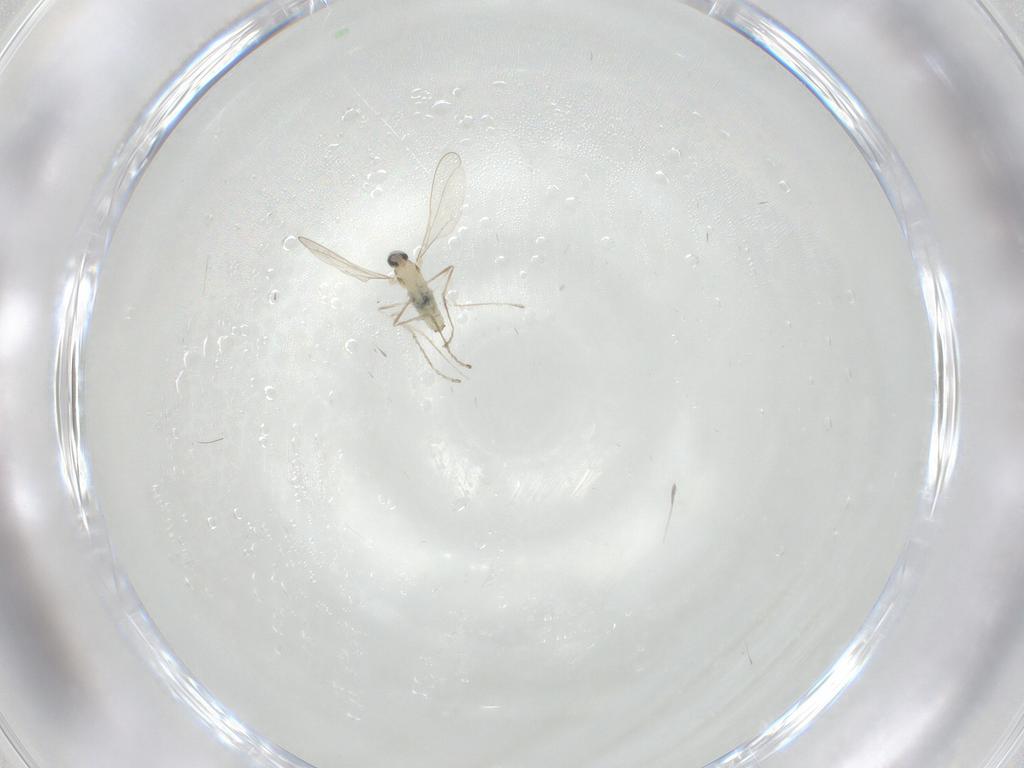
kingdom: Animalia
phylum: Arthropoda
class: Insecta
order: Diptera
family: Cecidomyiidae
